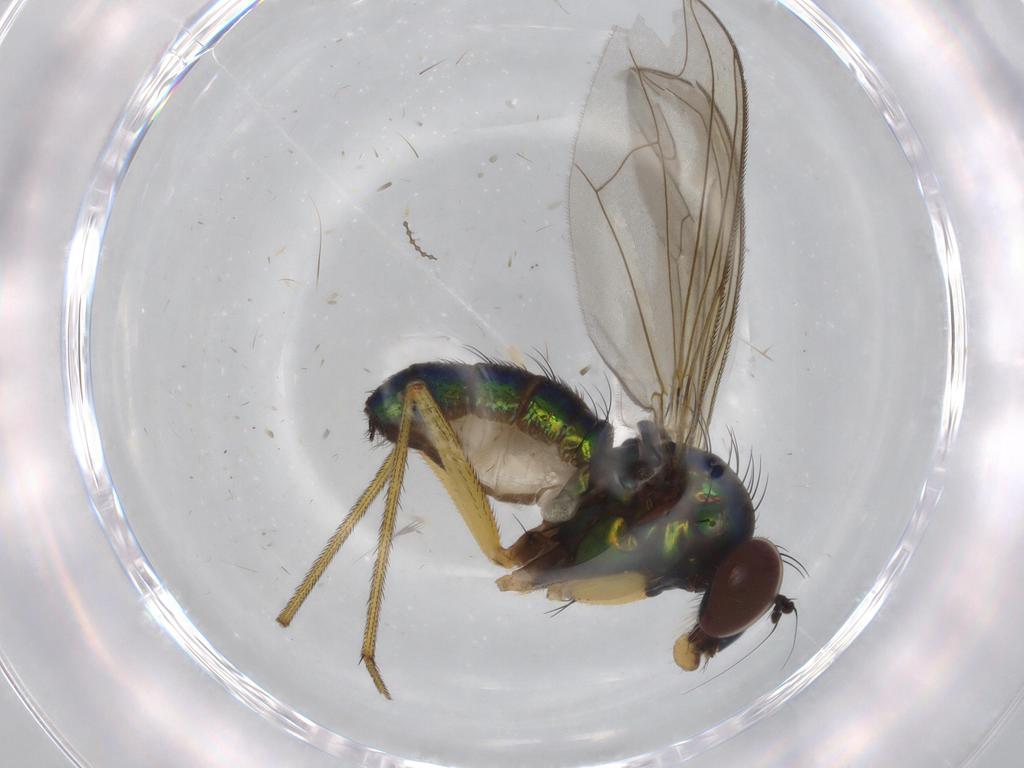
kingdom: Animalia
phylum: Arthropoda
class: Insecta
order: Diptera
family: Dolichopodidae
